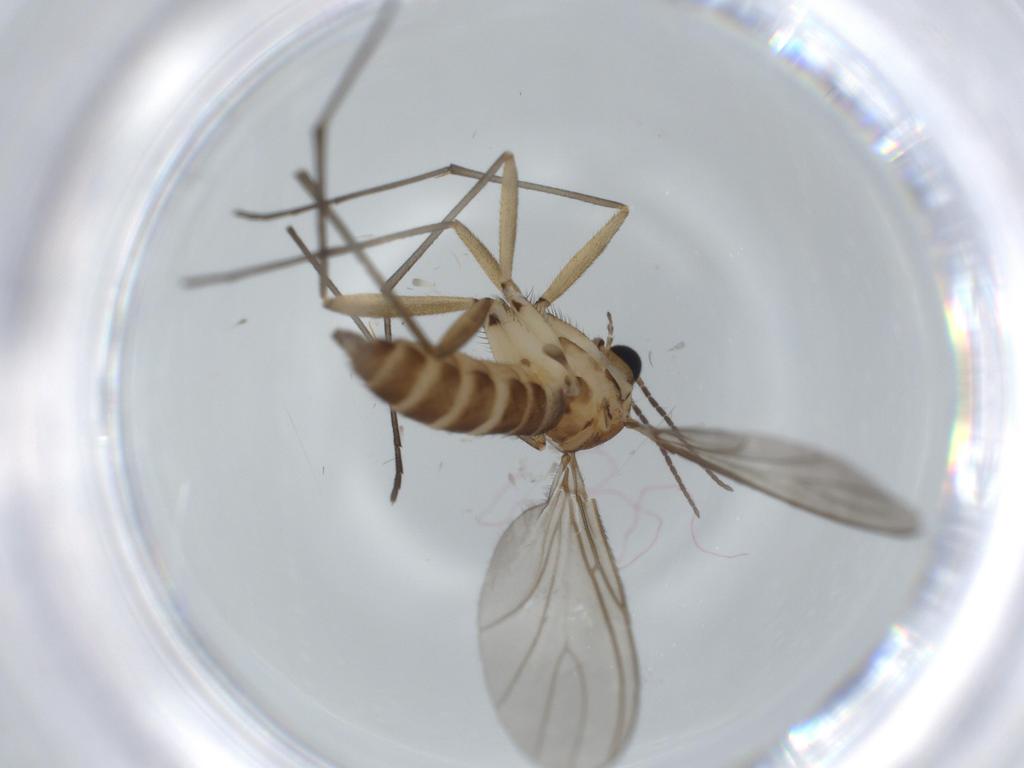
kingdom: Animalia
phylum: Arthropoda
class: Insecta
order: Diptera
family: Sciaridae
